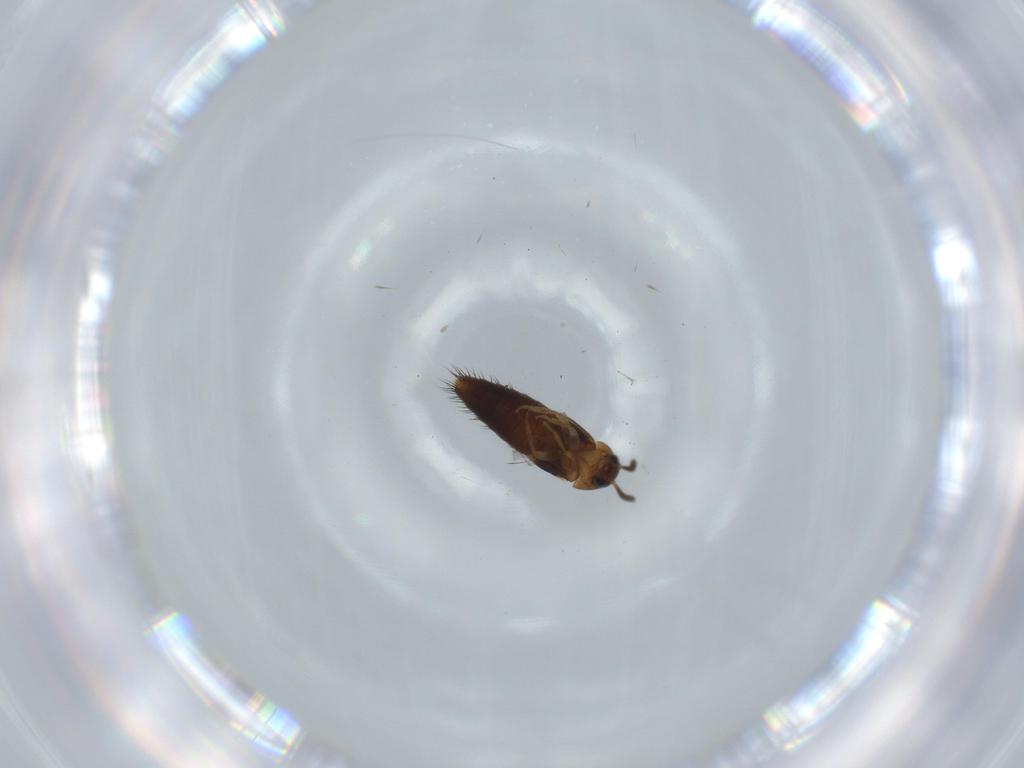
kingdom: Animalia
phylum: Arthropoda
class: Insecta
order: Coleoptera
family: Staphylinidae
